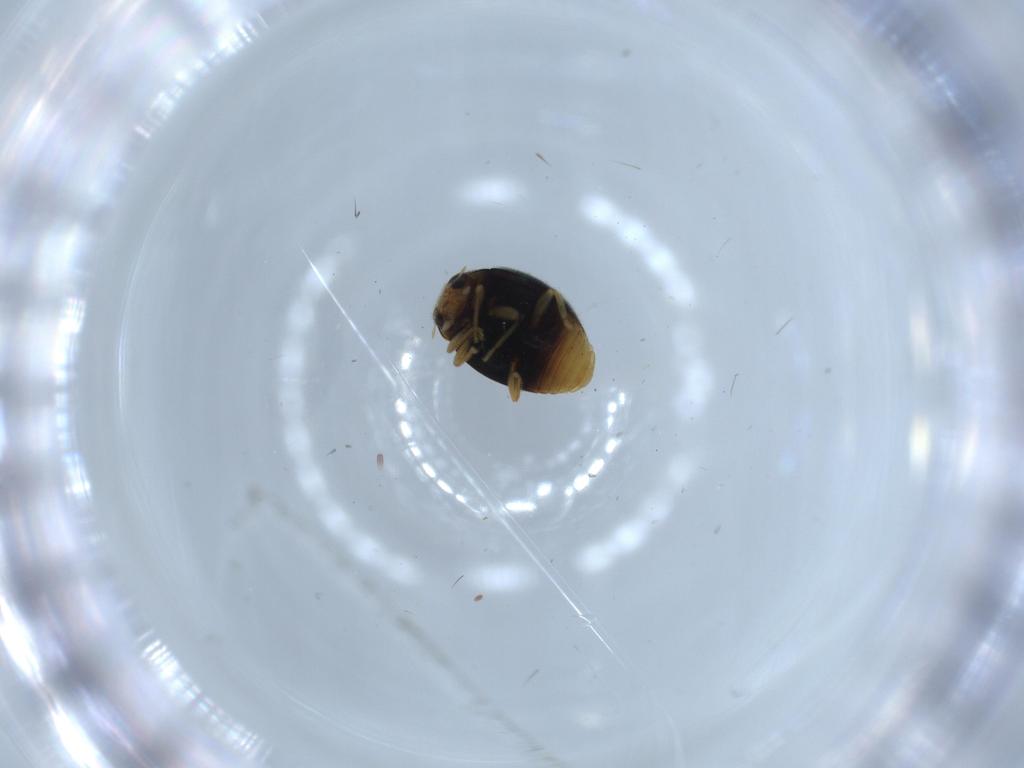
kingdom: Animalia
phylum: Arthropoda
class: Insecta
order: Coleoptera
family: Coccinellidae
